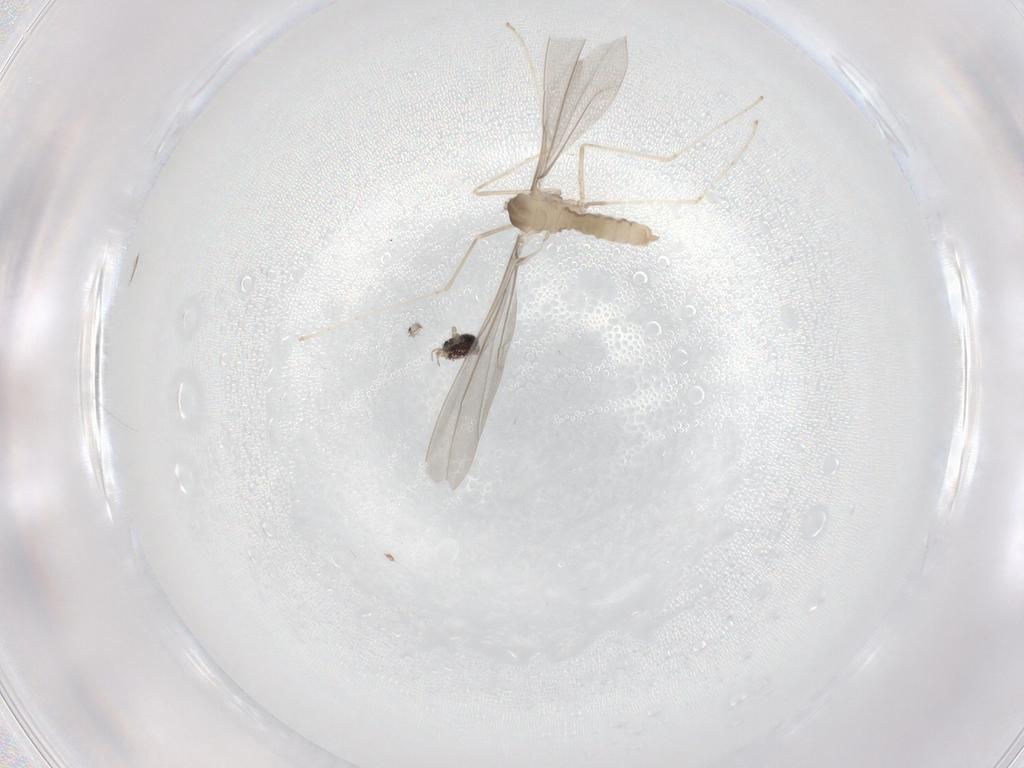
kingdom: Animalia
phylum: Arthropoda
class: Insecta
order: Diptera
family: Cecidomyiidae
